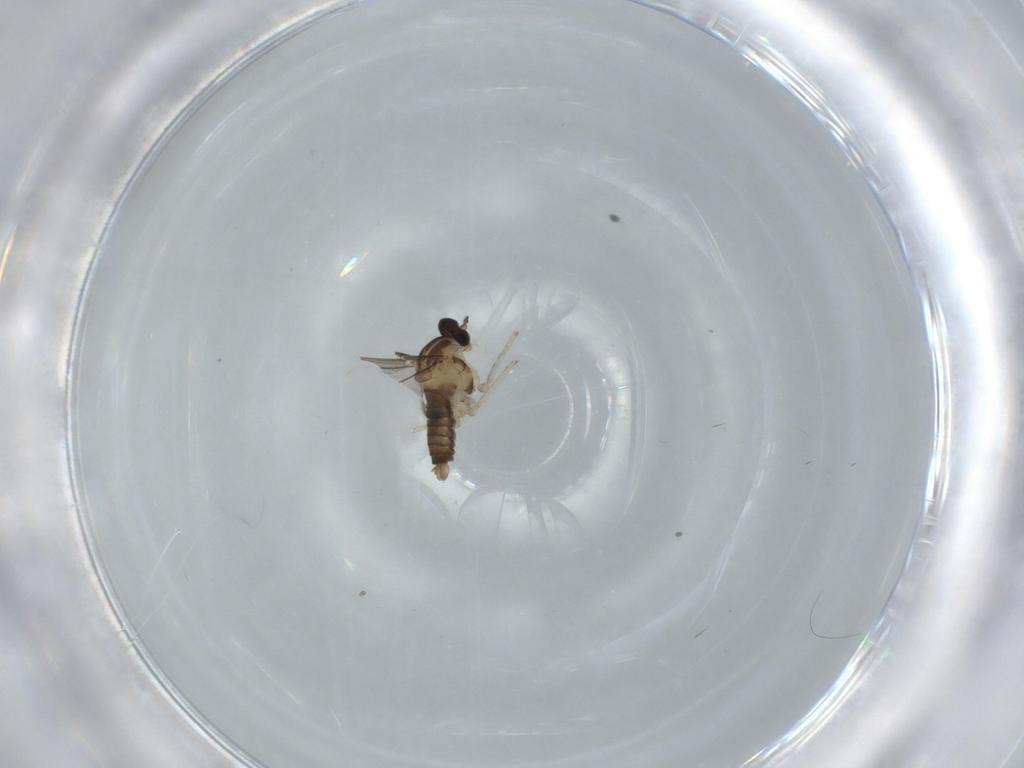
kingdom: Animalia
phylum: Arthropoda
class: Insecta
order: Diptera
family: Cecidomyiidae
